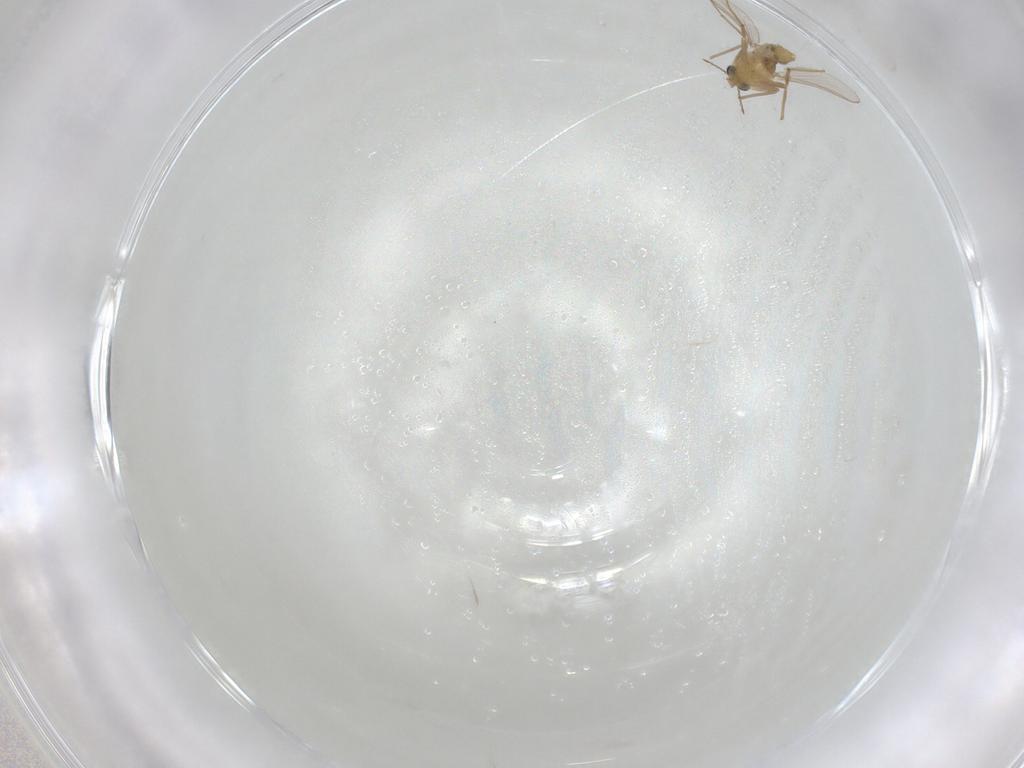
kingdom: Animalia
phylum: Arthropoda
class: Insecta
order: Diptera
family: Chironomidae
